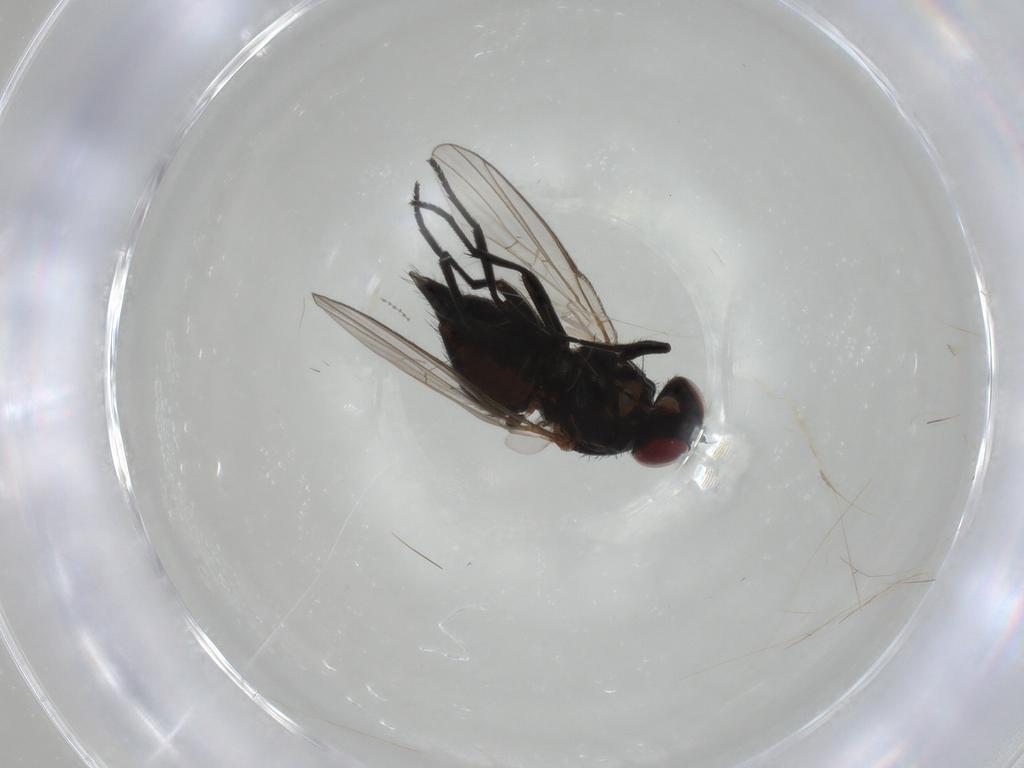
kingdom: Animalia
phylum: Arthropoda
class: Insecta
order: Diptera
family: Agromyzidae
